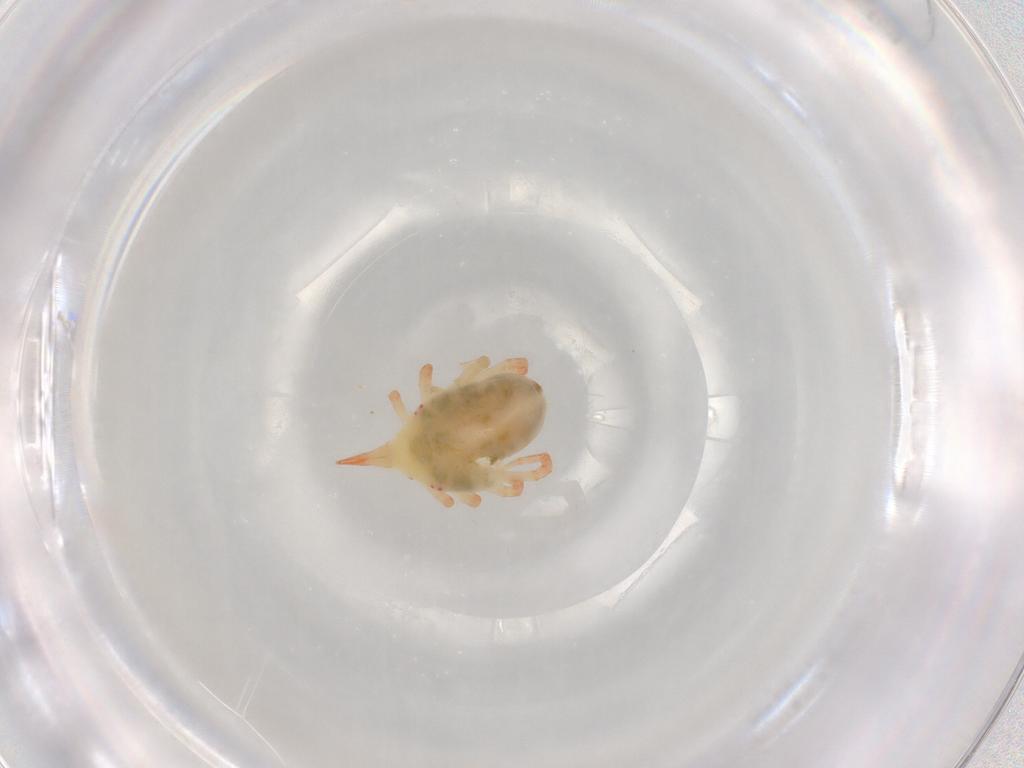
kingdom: Animalia
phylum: Arthropoda
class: Arachnida
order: Trombidiformes
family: Bdellidae
